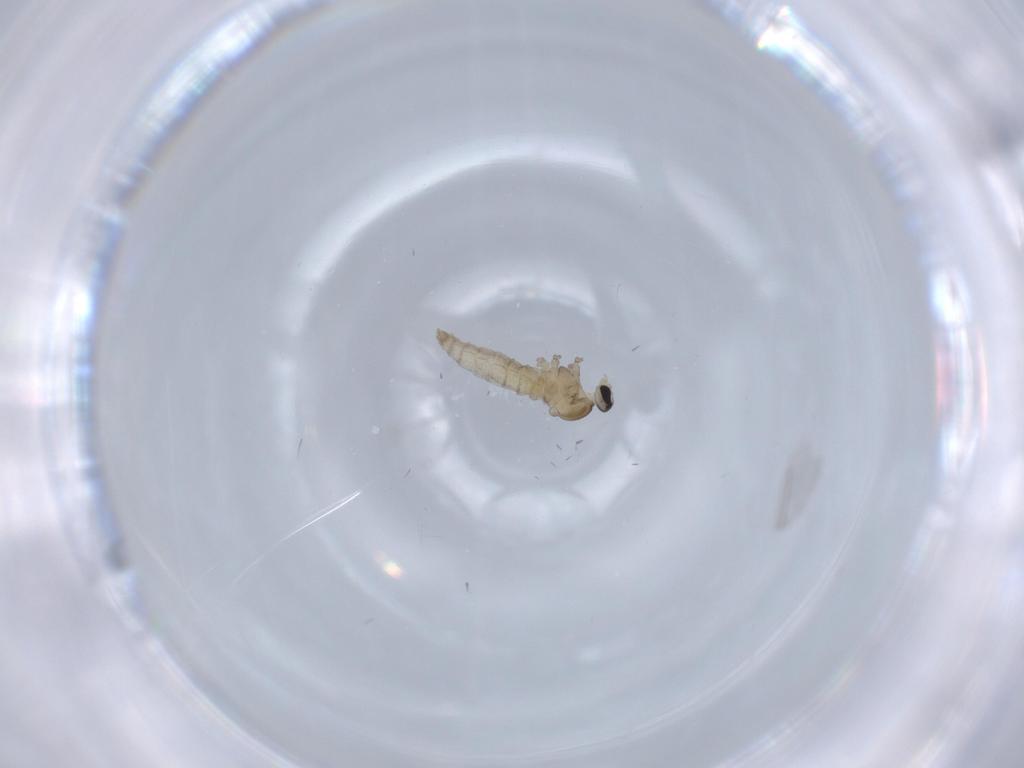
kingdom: Animalia
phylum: Arthropoda
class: Insecta
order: Diptera
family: Cecidomyiidae
